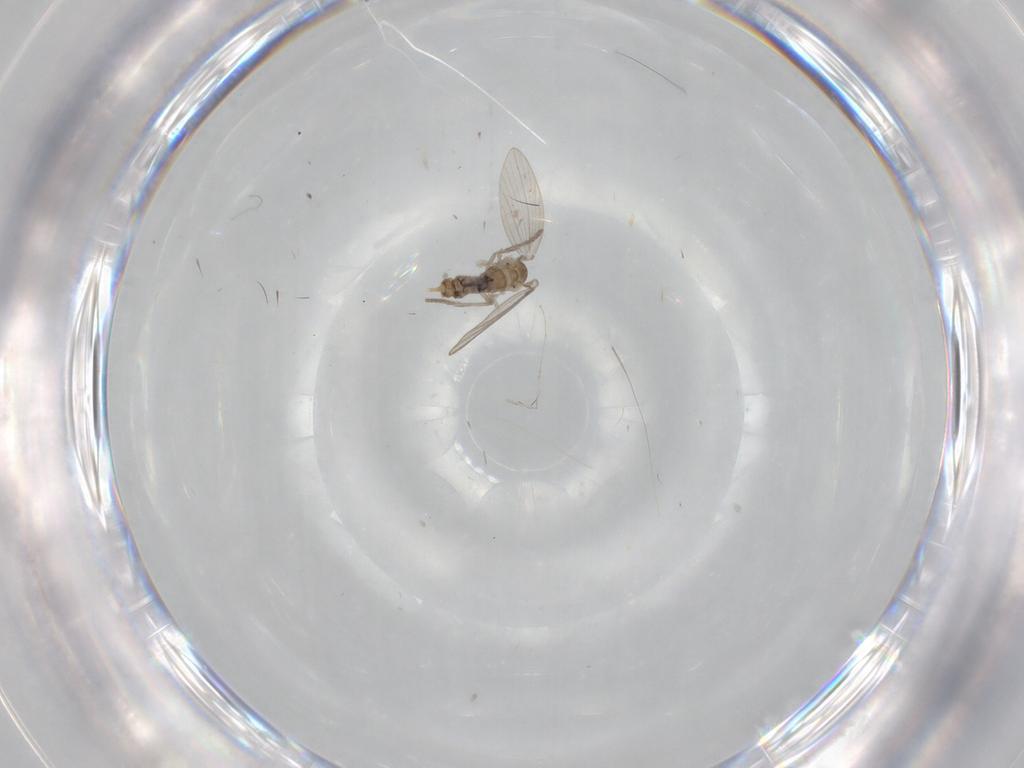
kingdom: Animalia
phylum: Arthropoda
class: Insecta
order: Diptera
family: Psychodidae
